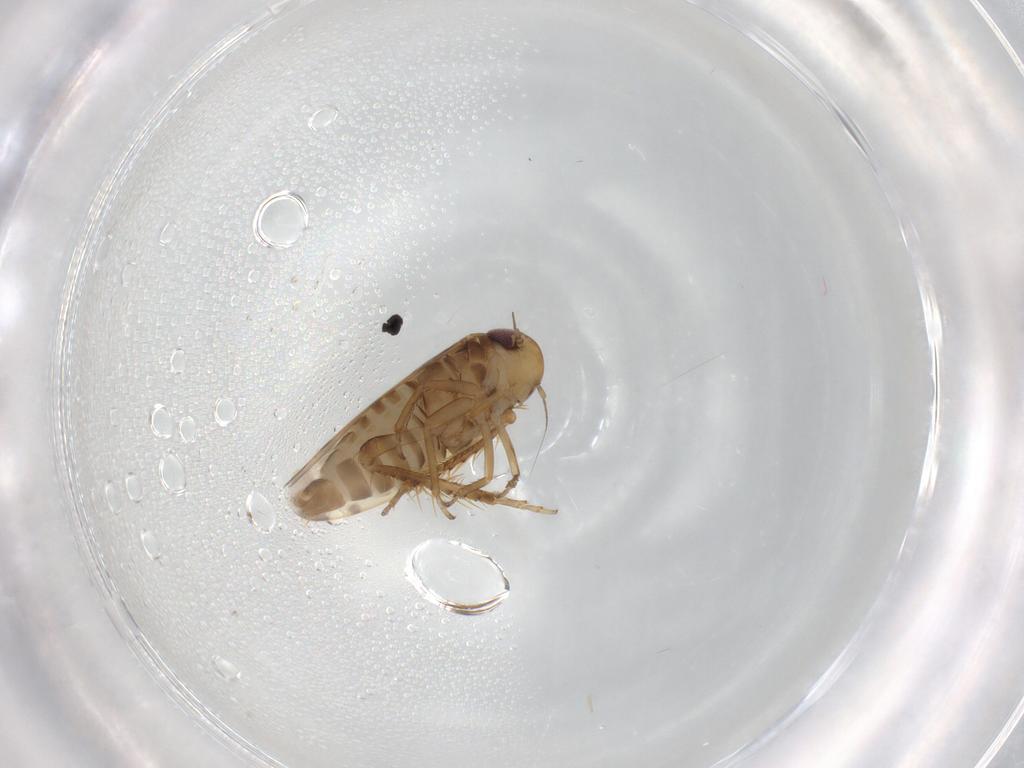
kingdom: Animalia
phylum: Arthropoda
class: Insecta
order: Hemiptera
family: Cicadellidae
